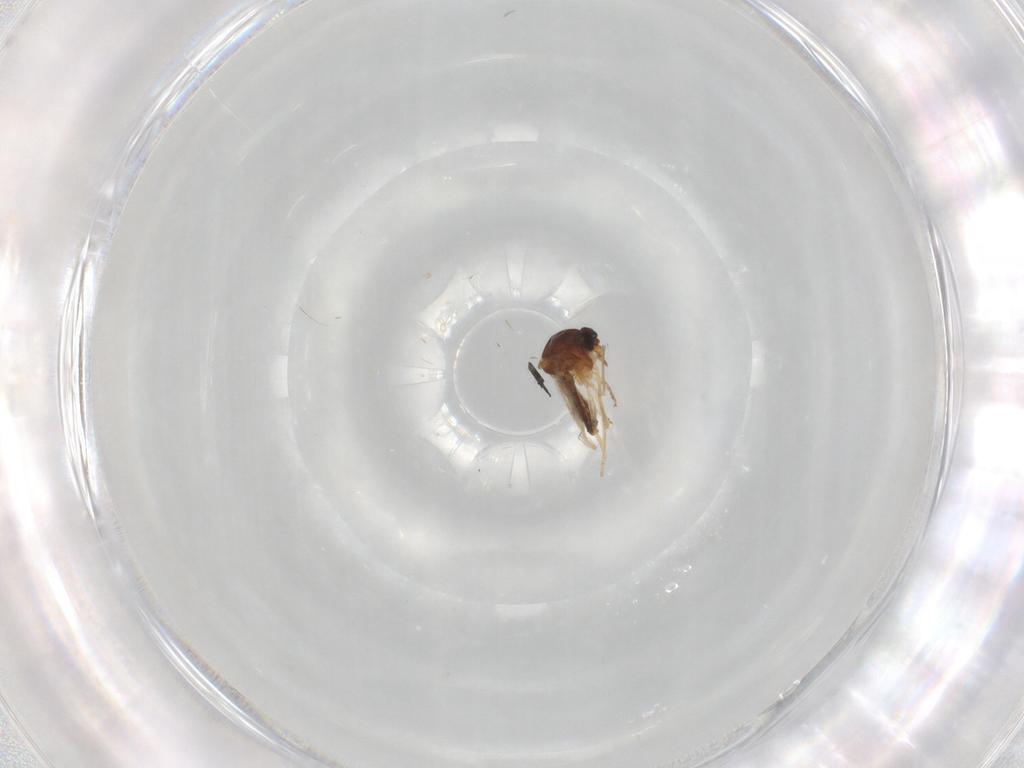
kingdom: Animalia
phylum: Arthropoda
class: Insecta
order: Diptera
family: Ceratopogonidae
